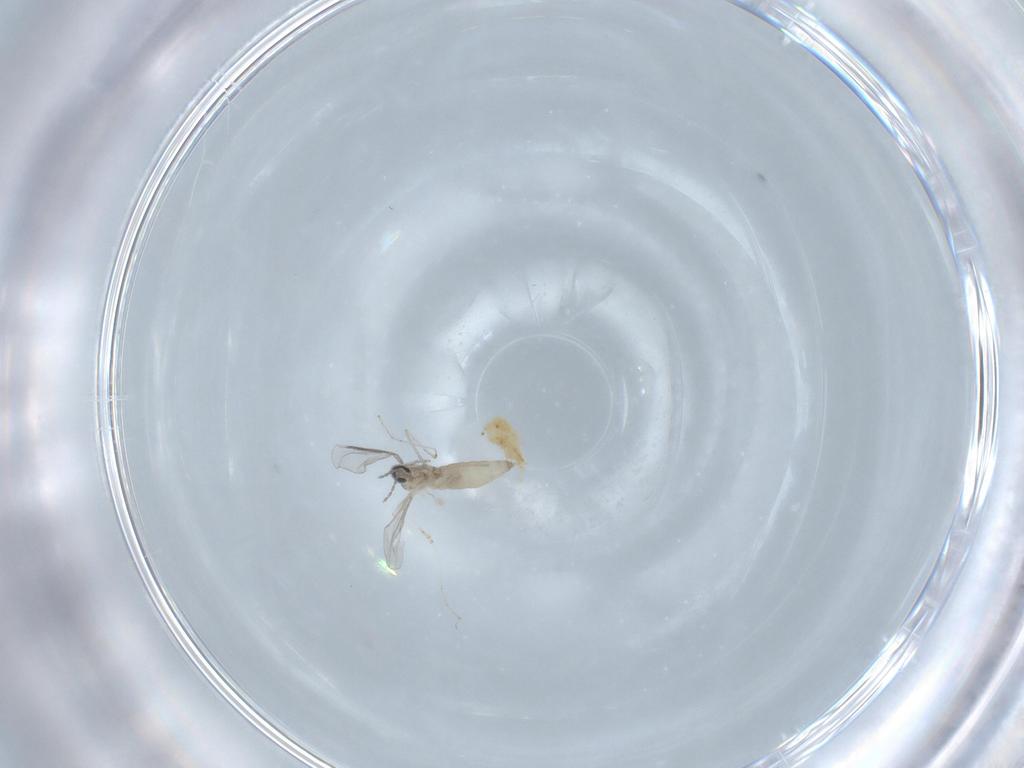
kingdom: Animalia
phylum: Arthropoda
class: Insecta
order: Diptera
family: Cecidomyiidae
